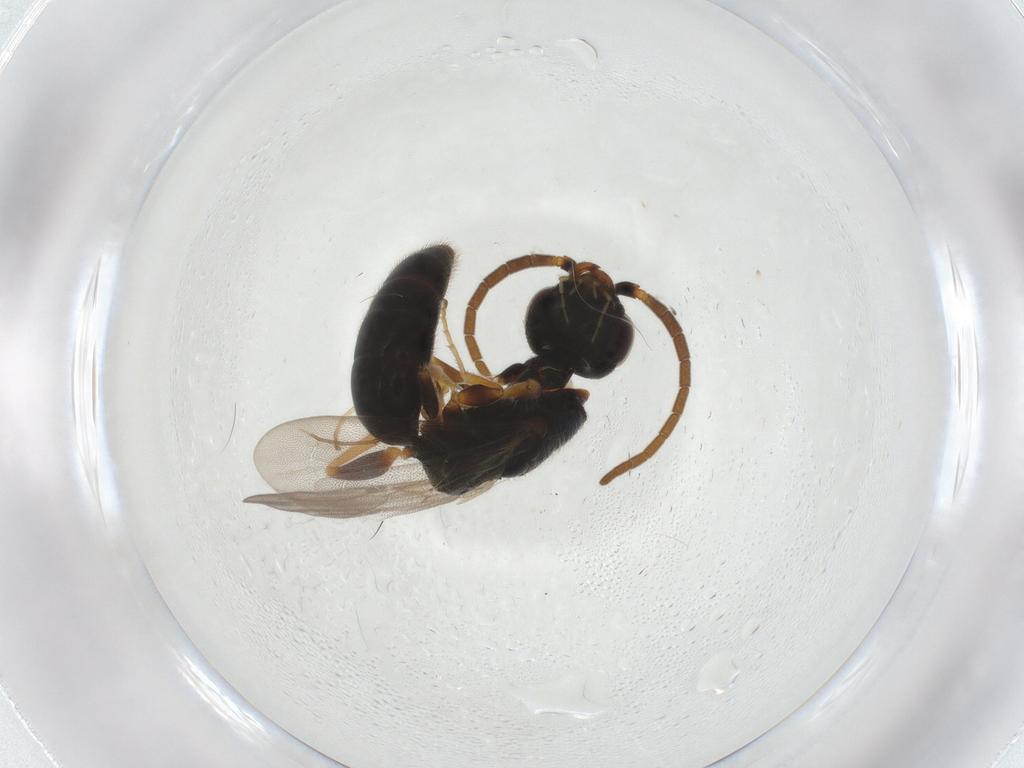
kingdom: Animalia
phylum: Arthropoda
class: Insecta
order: Hymenoptera
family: Bethylidae
